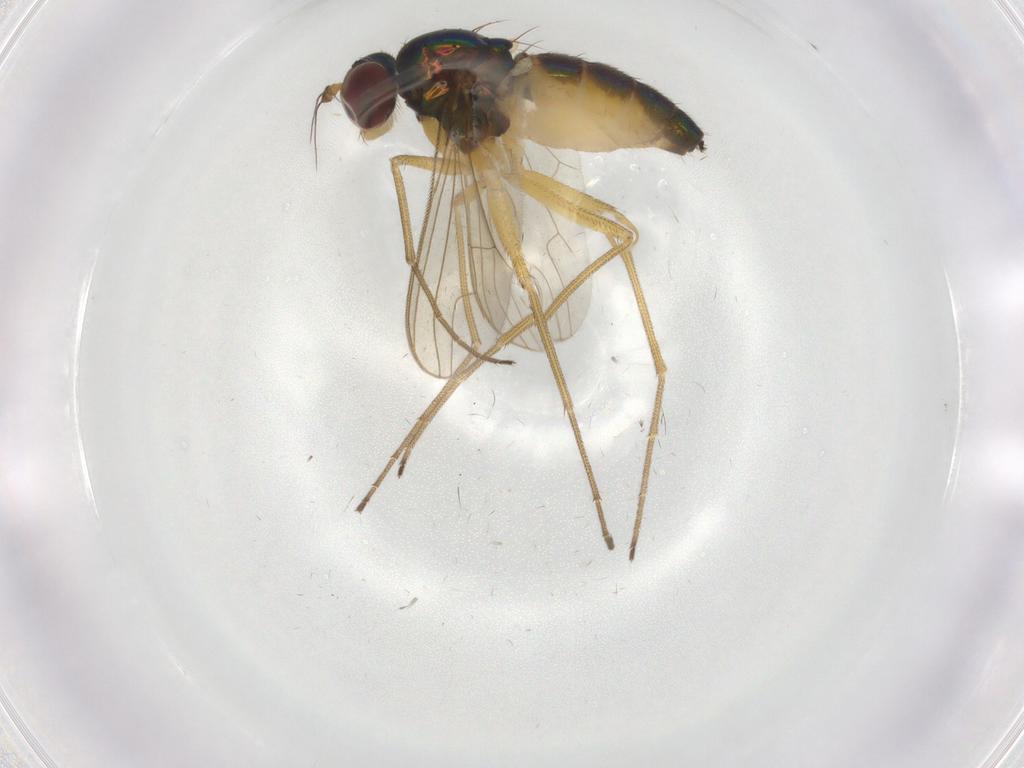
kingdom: Animalia
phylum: Arthropoda
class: Insecta
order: Diptera
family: Dolichopodidae
